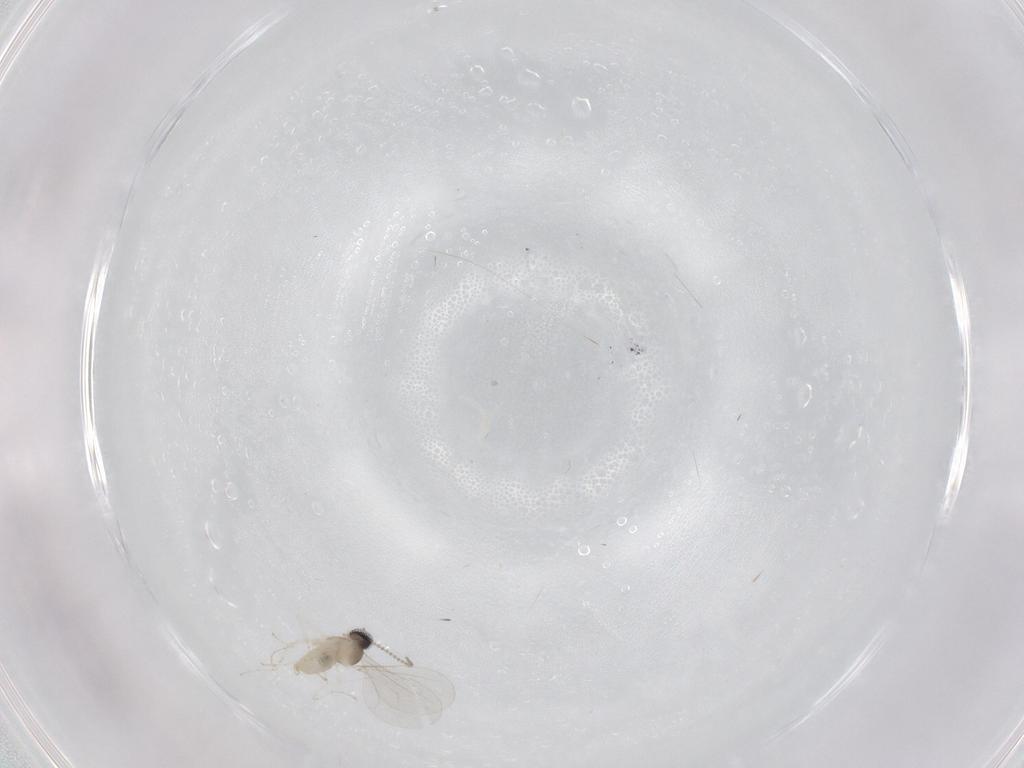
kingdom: Animalia
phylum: Arthropoda
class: Insecta
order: Diptera
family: Cecidomyiidae
